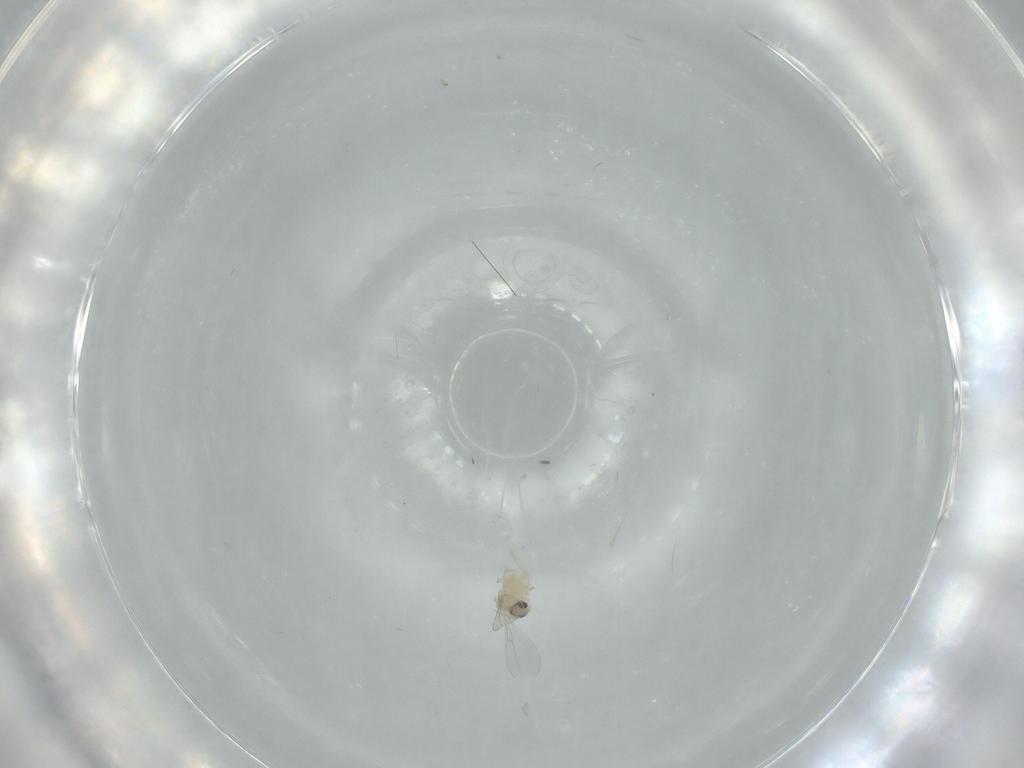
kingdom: Animalia
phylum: Arthropoda
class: Insecta
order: Diptera
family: Cecidomyiidae
